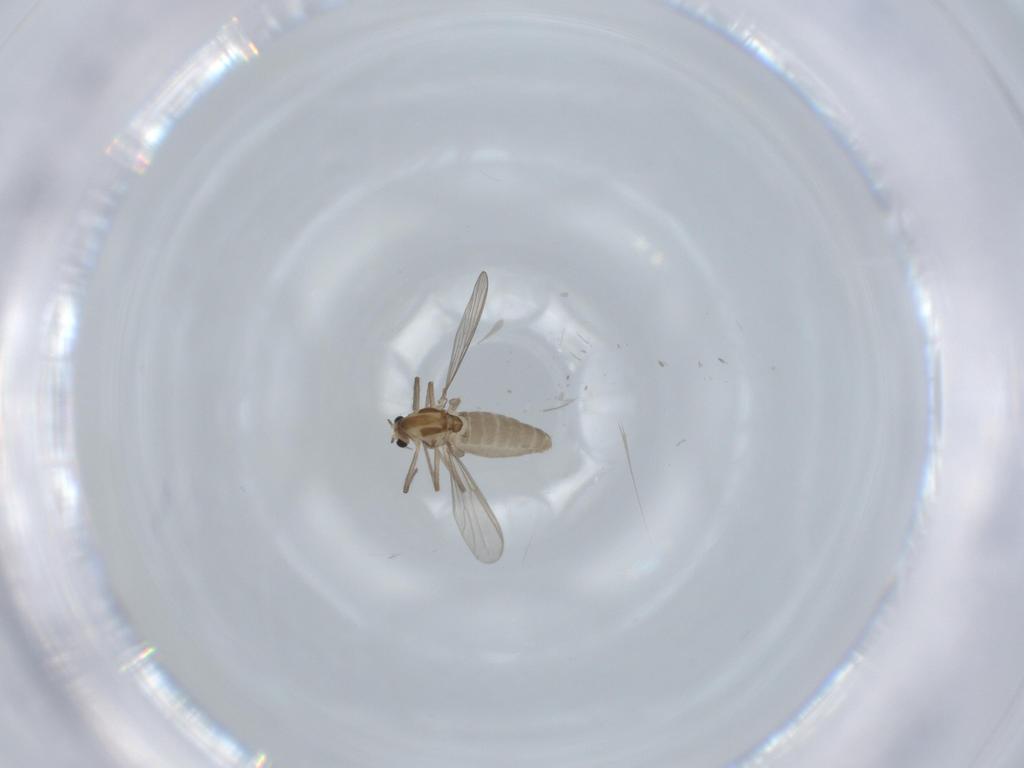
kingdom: Animalia
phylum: Arthropoda
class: Insecta
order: Diptera
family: Chironomidae
